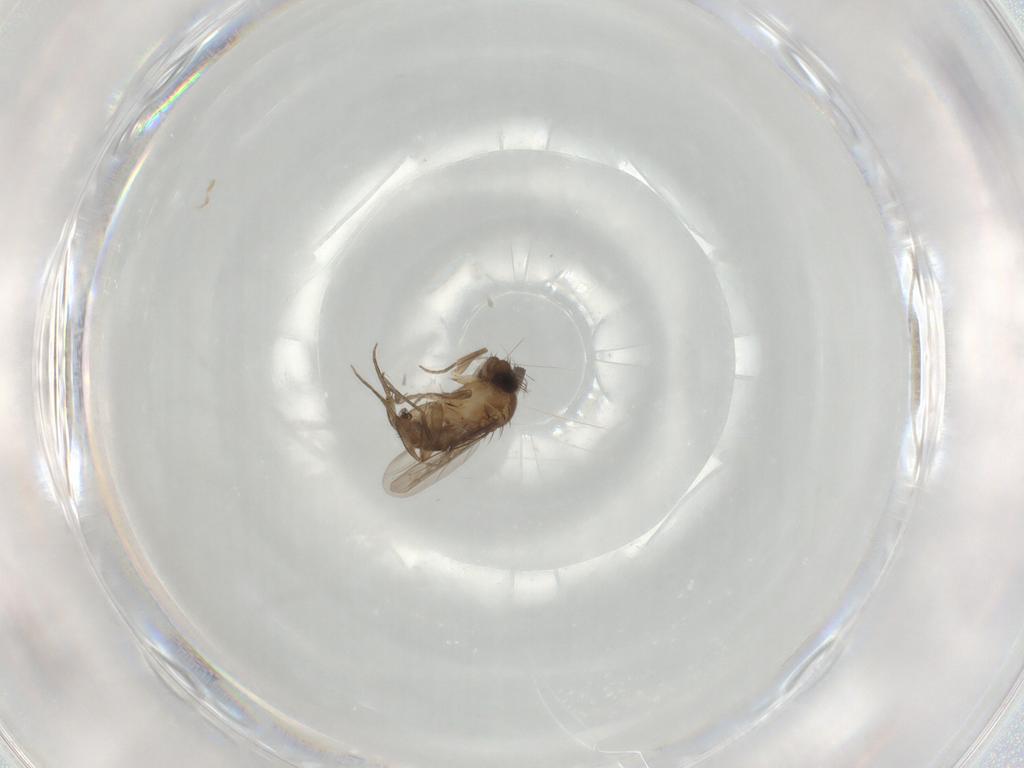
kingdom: Animalia
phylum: Arthropoda
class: Insecta
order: Diptera
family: Phoridae
